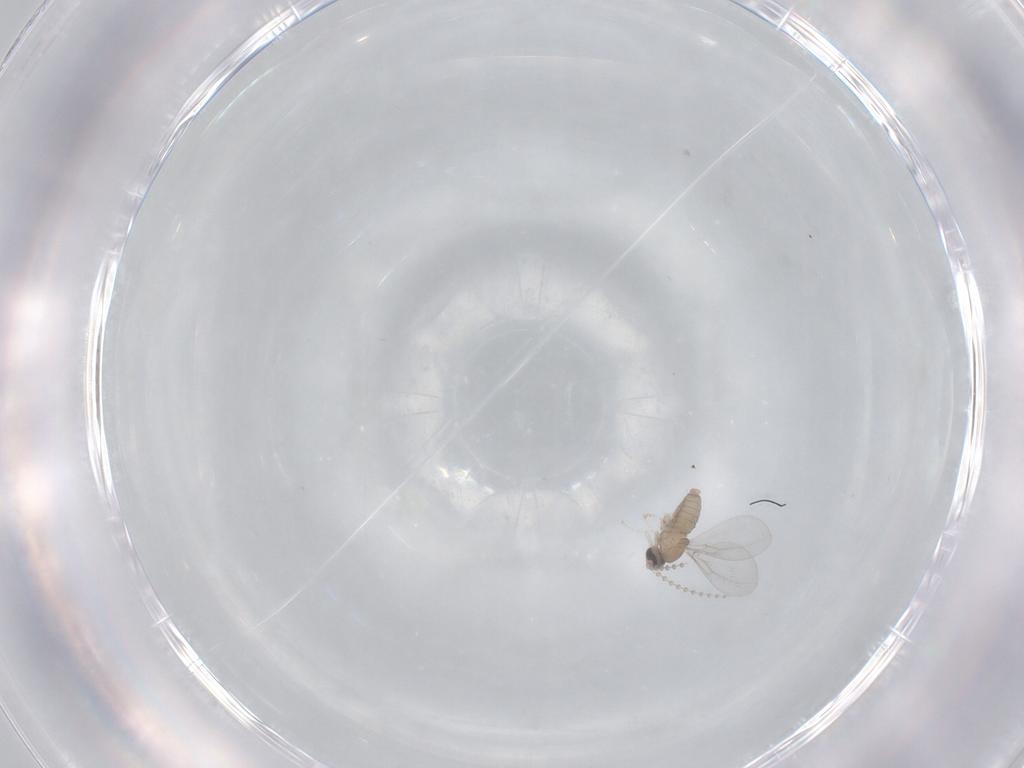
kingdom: Animalia
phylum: Arthropoda
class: Insecta
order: Diptera
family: Cecidomyiidae
